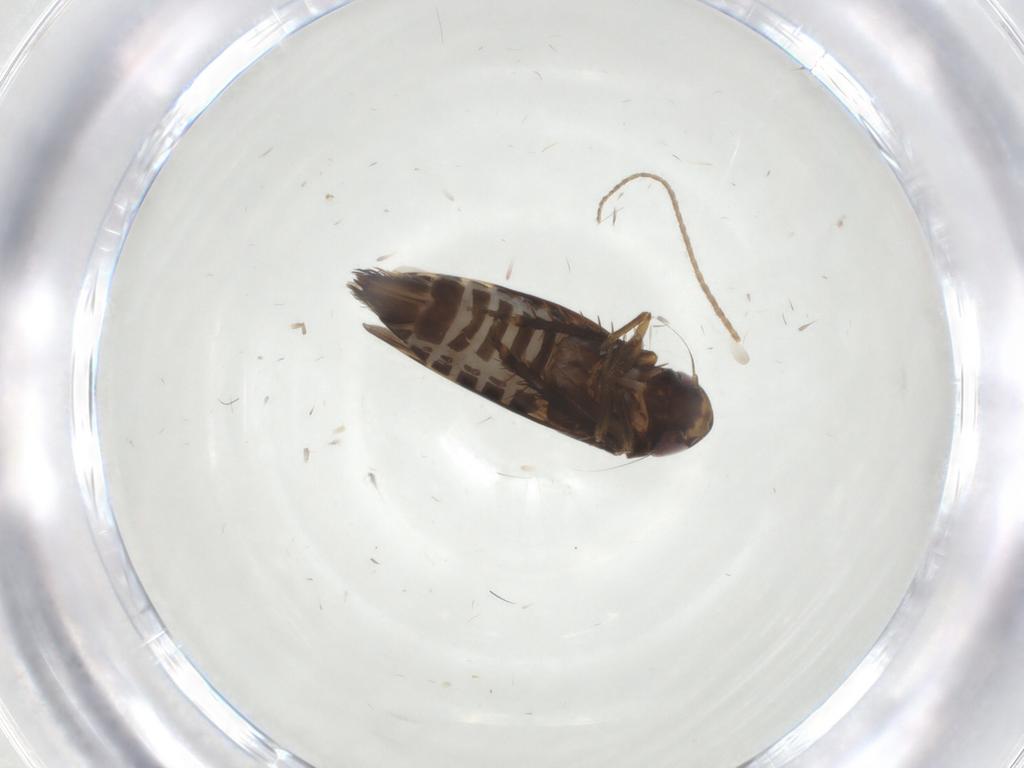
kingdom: Animalia
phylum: Arthropoda
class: Insecta
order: Hemiptera
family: Cicadellidae
